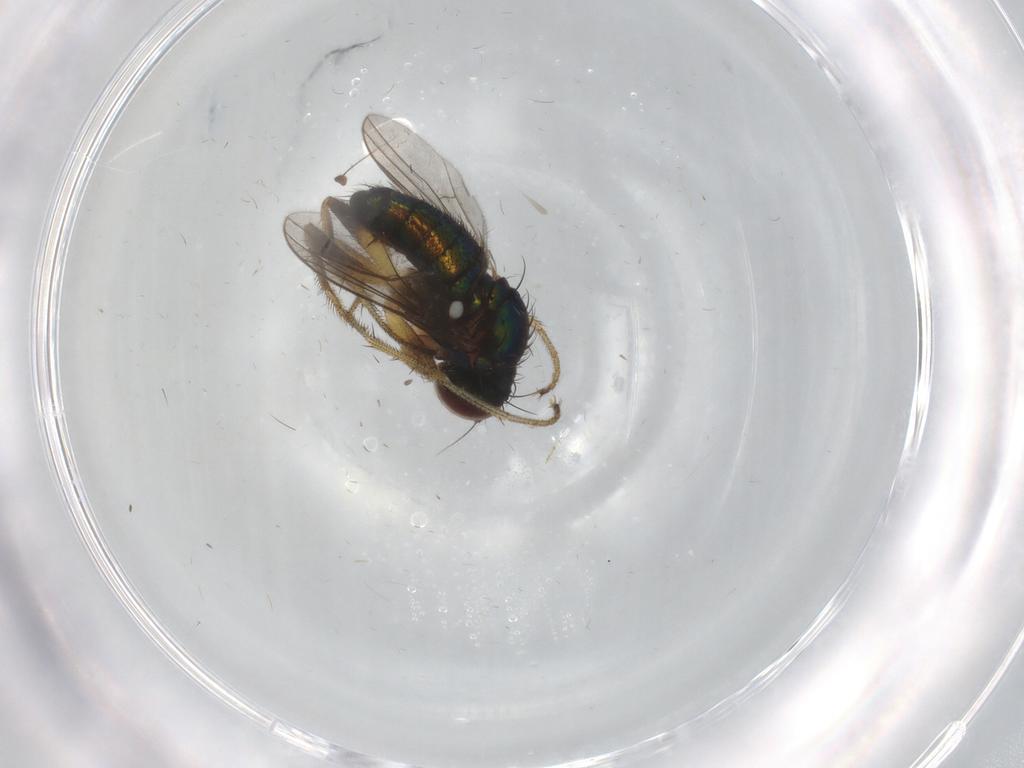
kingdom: Animalia
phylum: Arthropoda
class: Insecta
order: Diptera
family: Dolichopodidae
